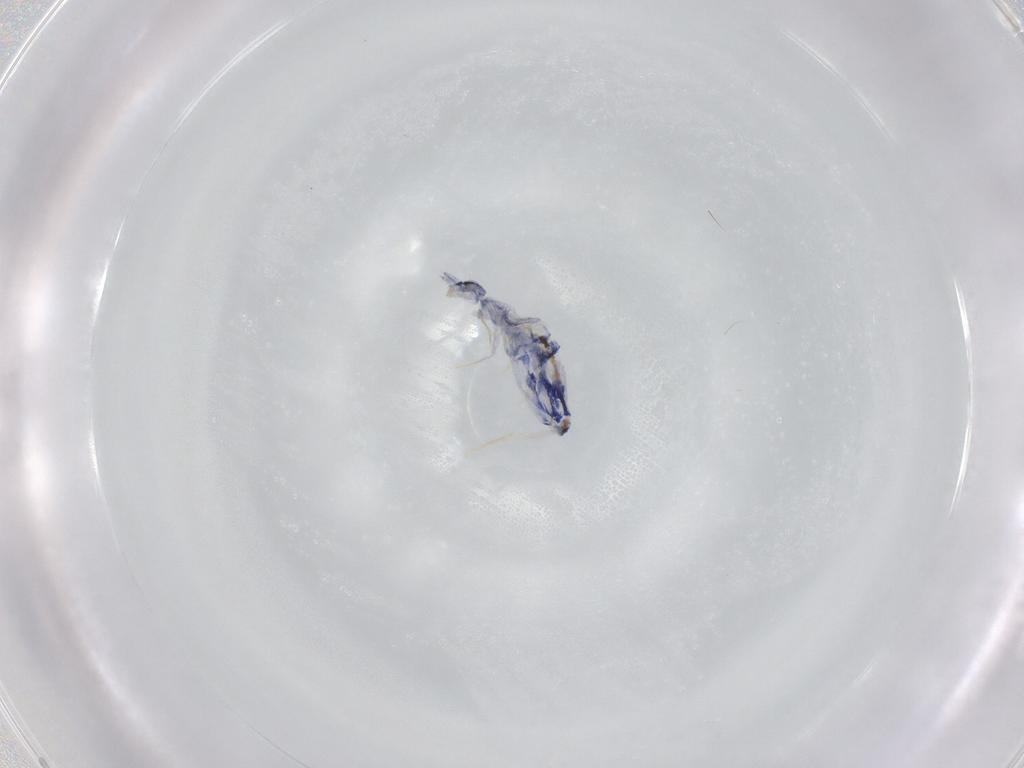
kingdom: Animalia
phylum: Arthropoda
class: Collembola
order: Entomobryomorpha
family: Entomobryidae
